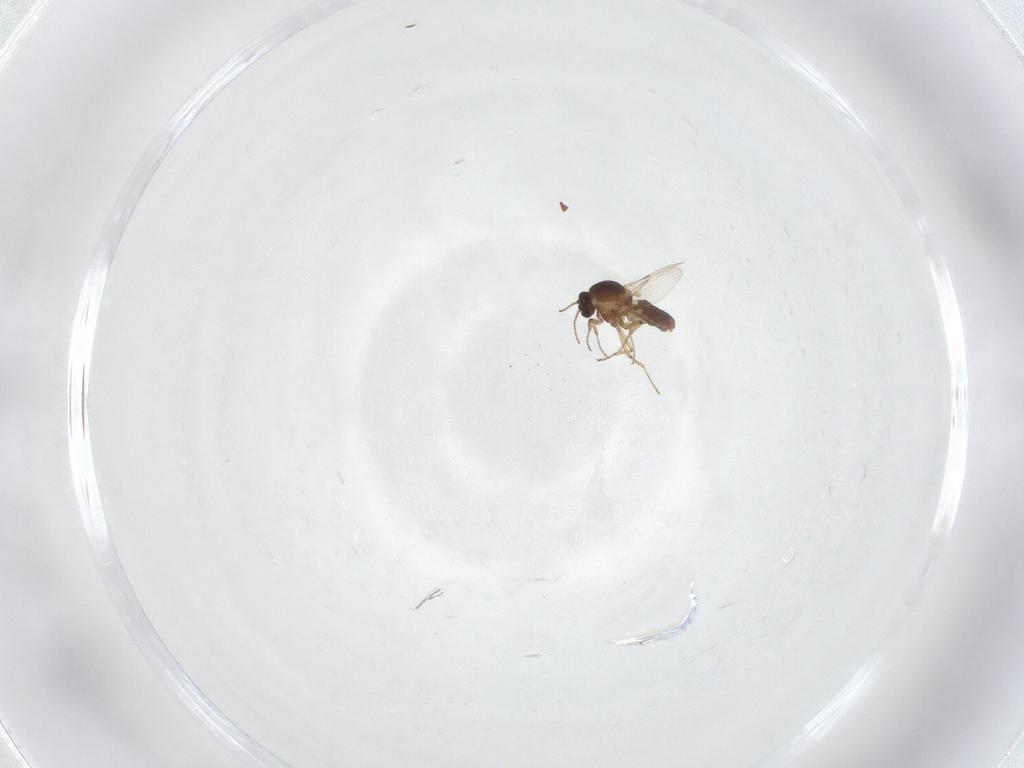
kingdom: Animalia
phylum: Arthropoda
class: Insecta
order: Diptera
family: Ceratopogonidae
